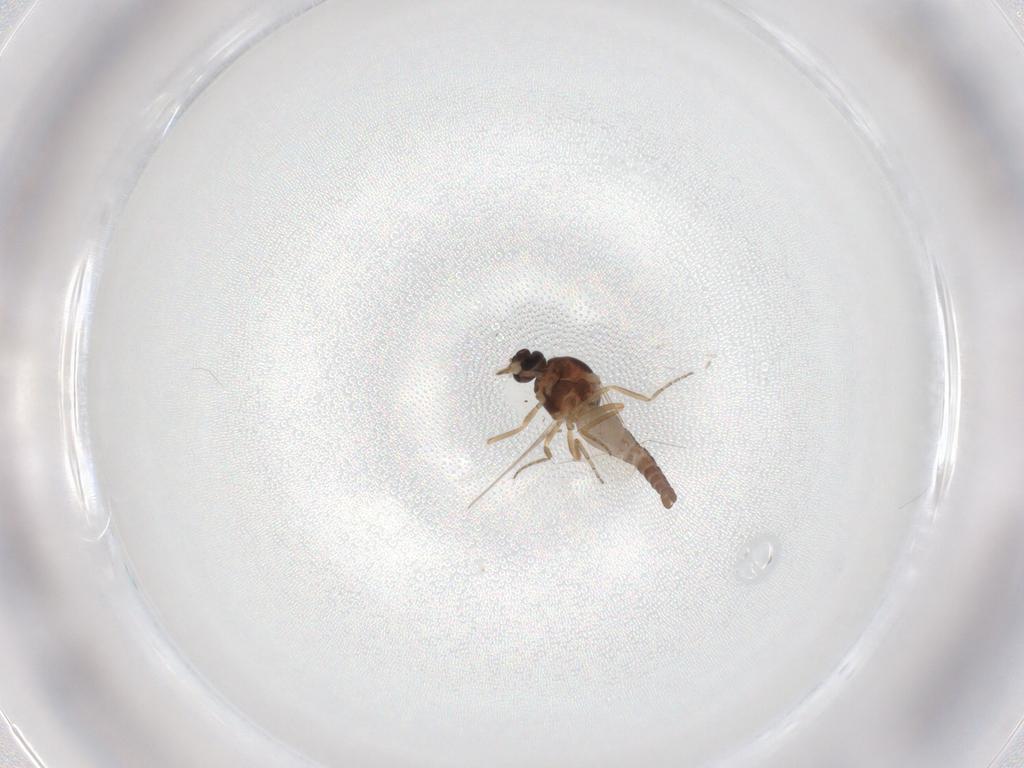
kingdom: Animalia
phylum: Arthropoda
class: Insecta
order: Diptera
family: Ceratopogonidae
